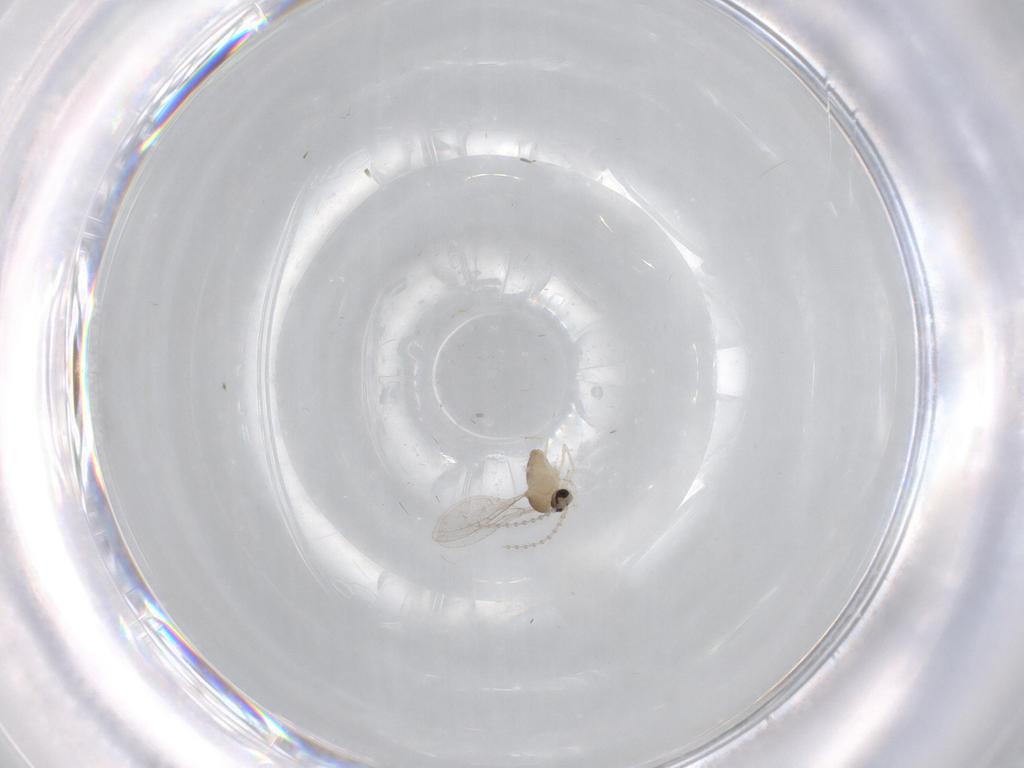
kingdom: Animalia
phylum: Arthropoda
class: Insecta
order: Diptera
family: Cecidomyiidae
